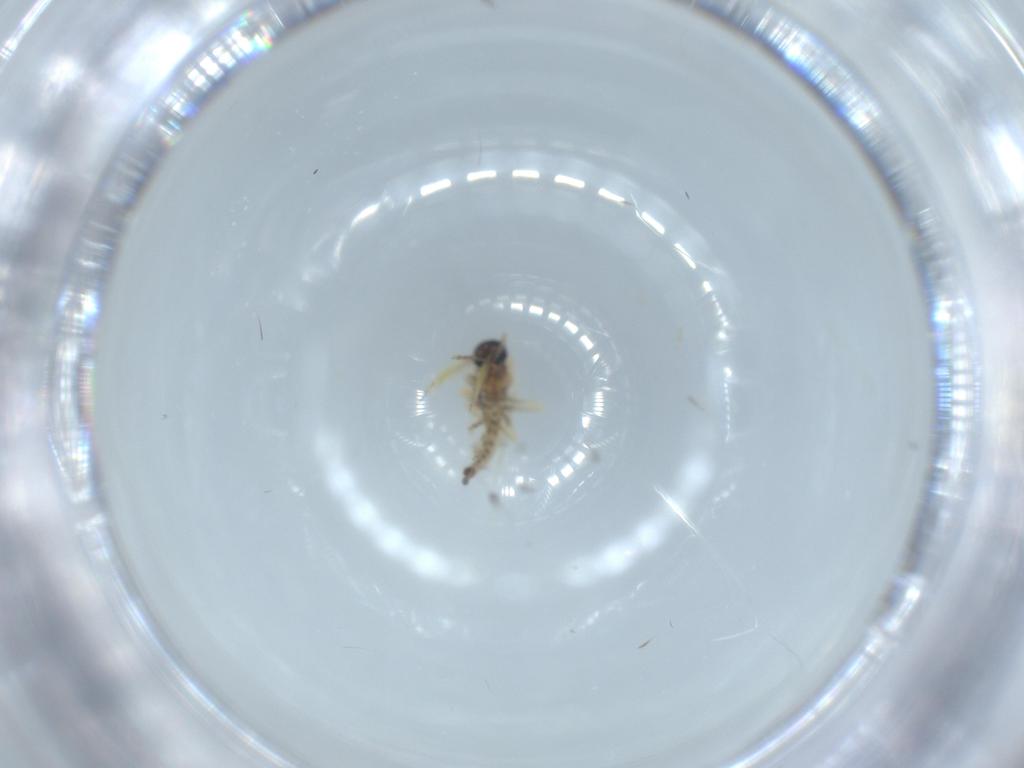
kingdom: Animalia
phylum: Arthropoda
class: Insecta
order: Diptera
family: Ceratopogonidae
